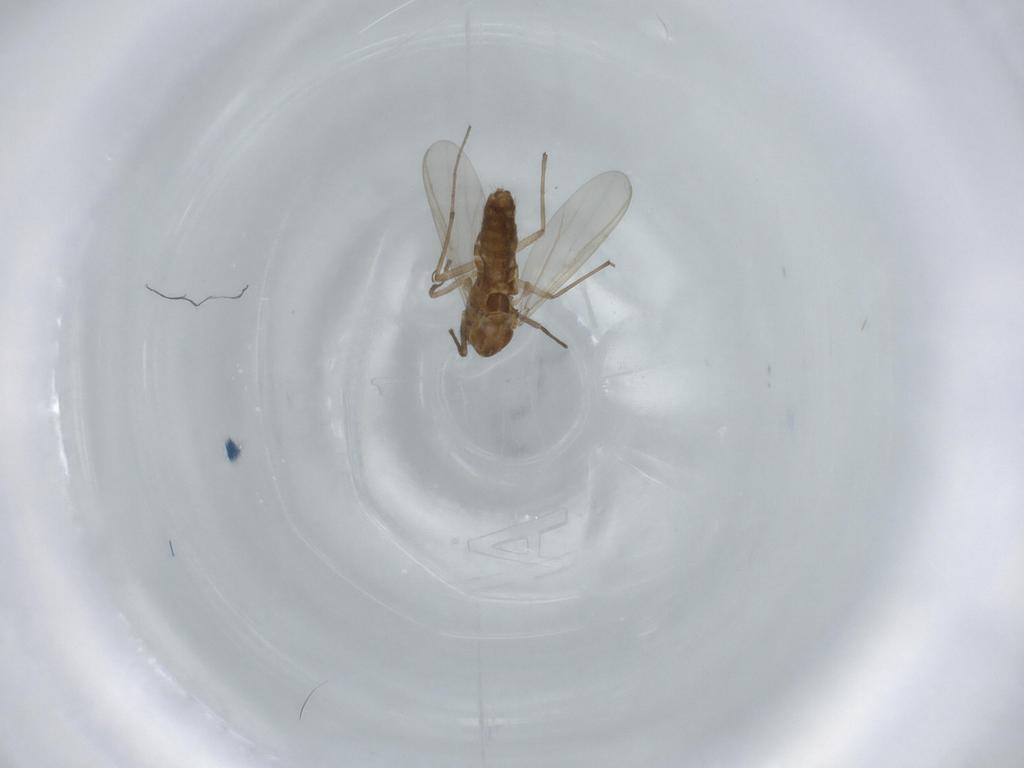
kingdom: Animalia
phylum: Arthropoda
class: Insecta
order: Diptera
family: Chironomidae
